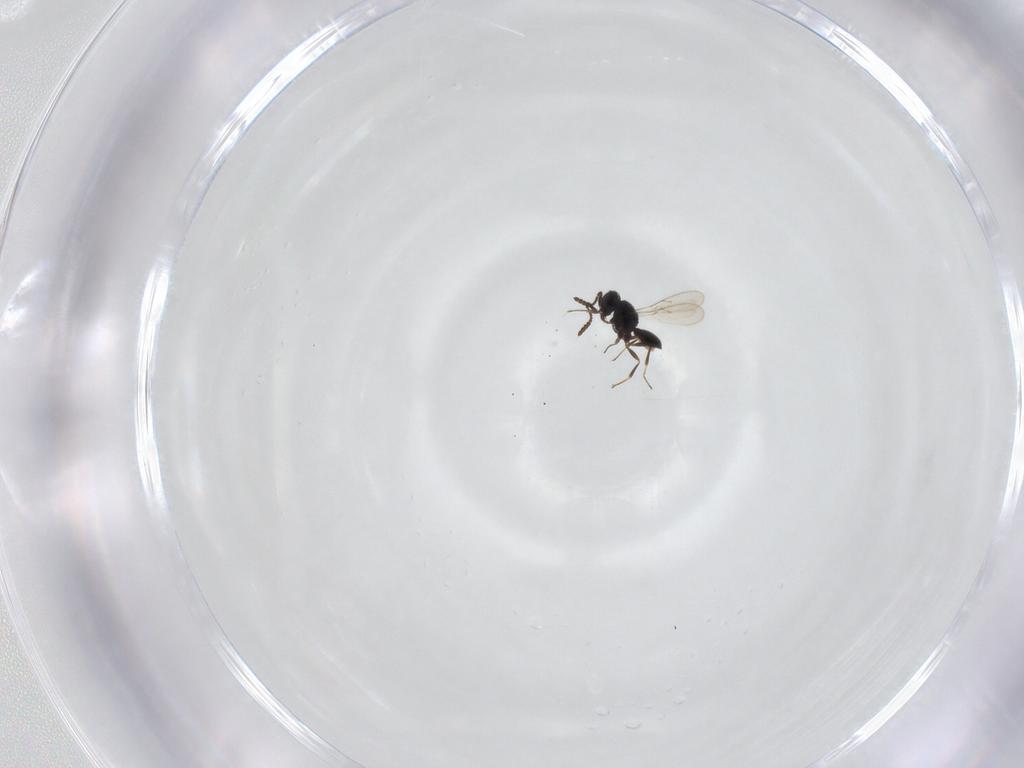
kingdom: Animalia
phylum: Arthropoda
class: Insecta
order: Hymenoptera
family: Scelionidae
